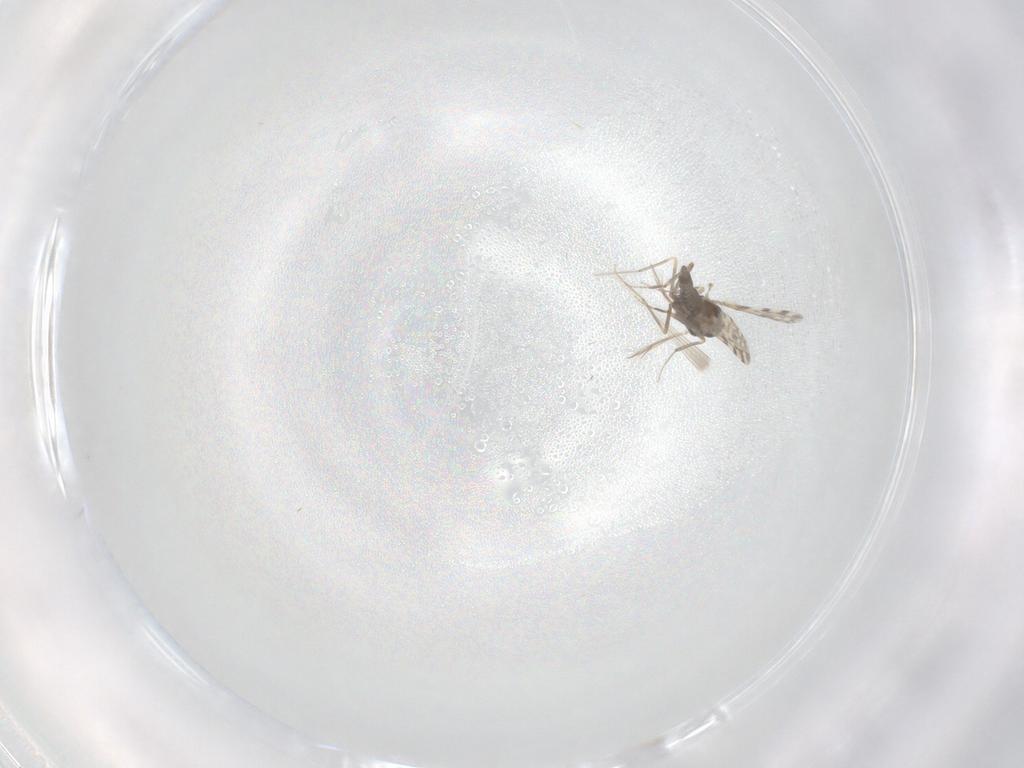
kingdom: Animalia
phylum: Arthropoda
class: Insecta
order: Diptera
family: Ceratopogonidae
